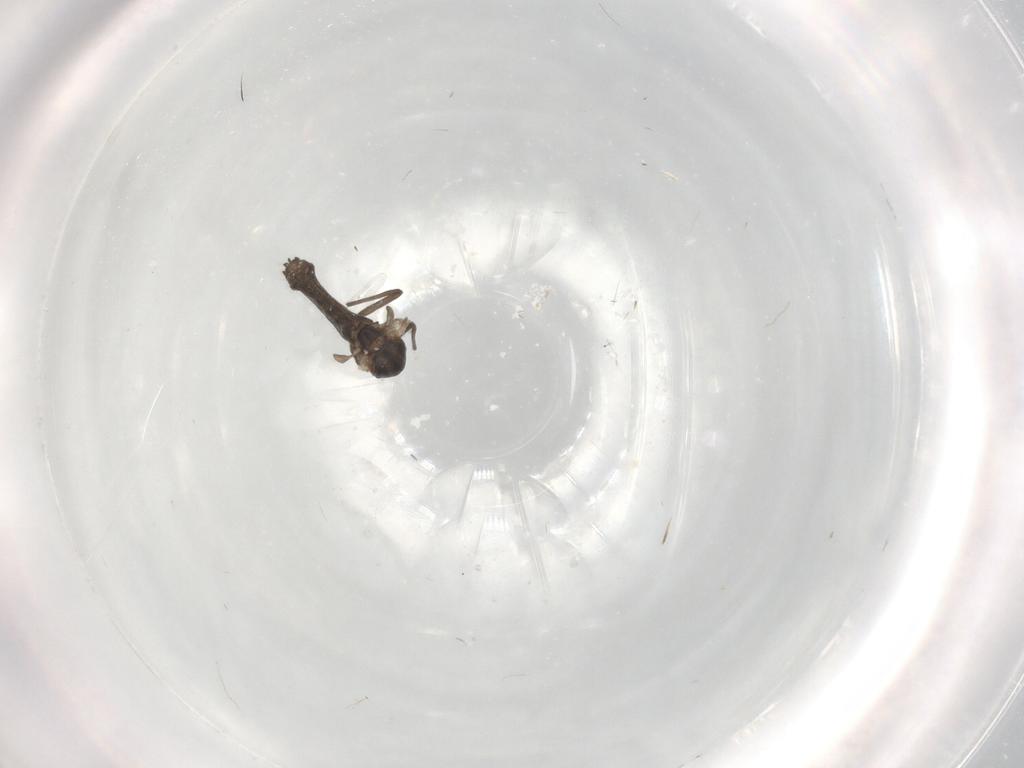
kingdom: Animalia
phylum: Arthropoda
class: Insecta
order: Diptera
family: Chironomidae
